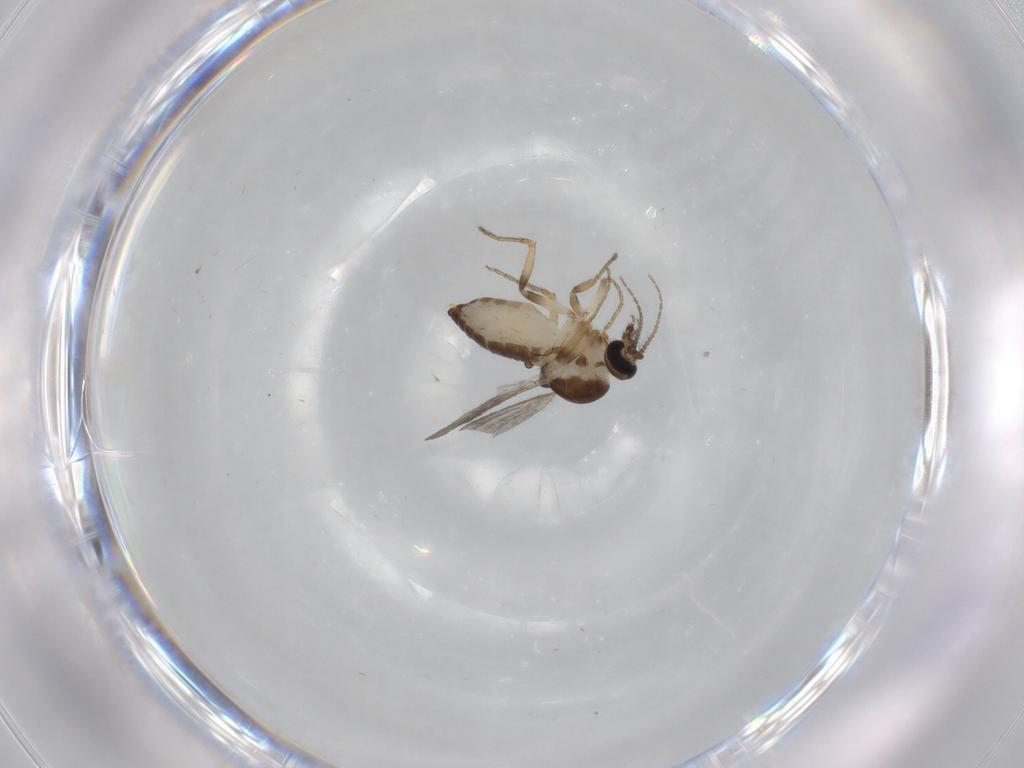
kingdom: Animalia
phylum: Arthropoda
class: Insecta
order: Diptera
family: Ceratopogonidae
